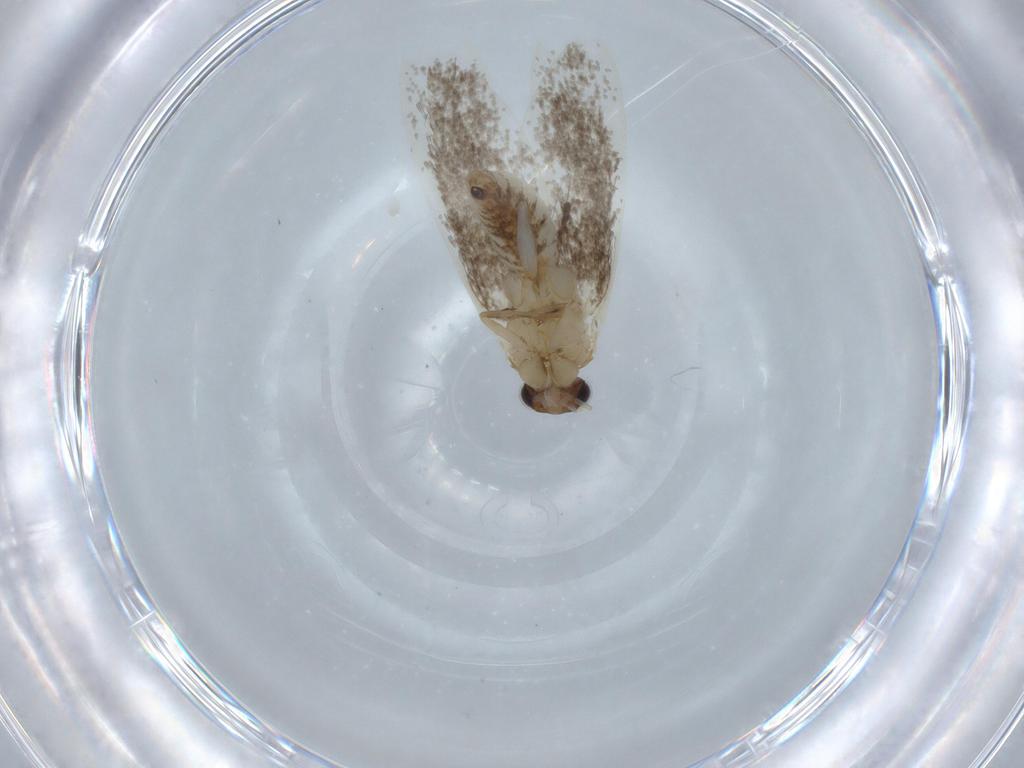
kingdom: Animalia
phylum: Arthropoda
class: Insecta
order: Lepidoptera
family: Tineidae
